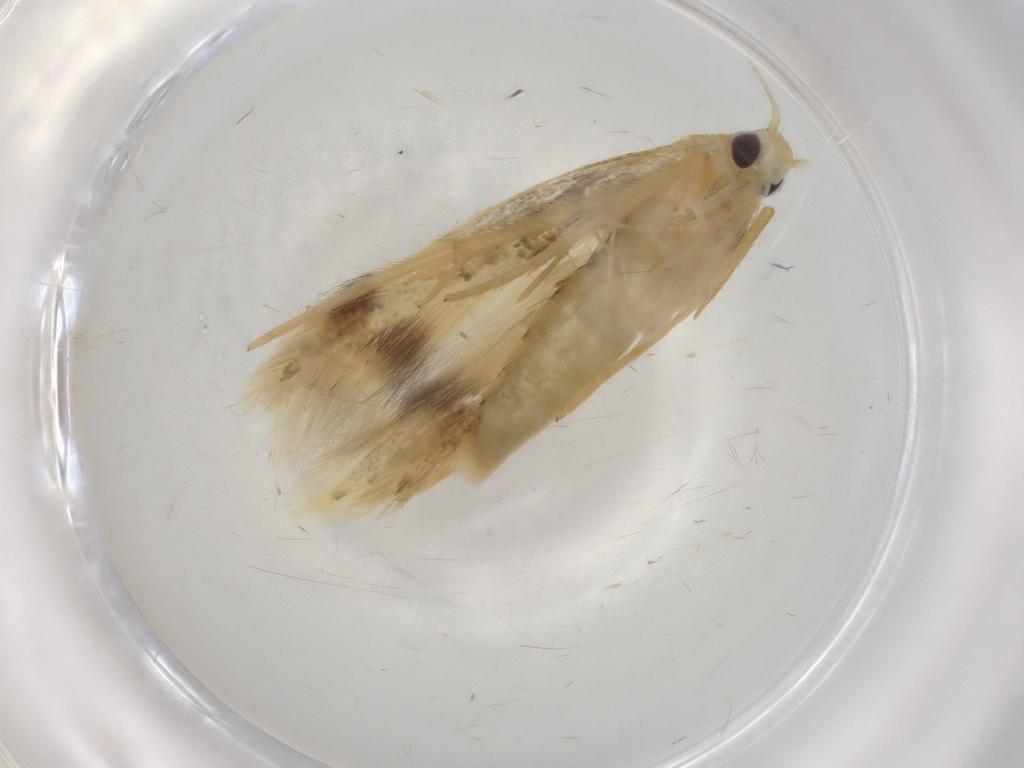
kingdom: Animalia
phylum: Arthropoda
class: Insecta
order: Lepidoptera
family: Gelechiidae
